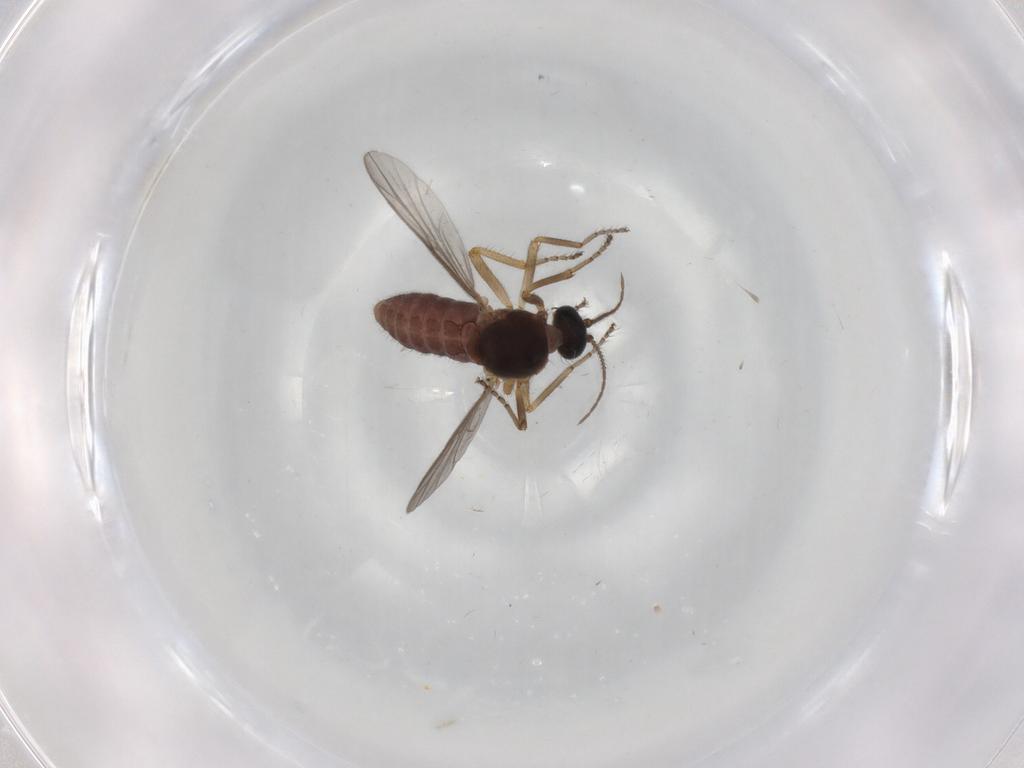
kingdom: Animalia
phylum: Arthropoda
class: Insecta
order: Diptera
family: Ceratopogonidae
